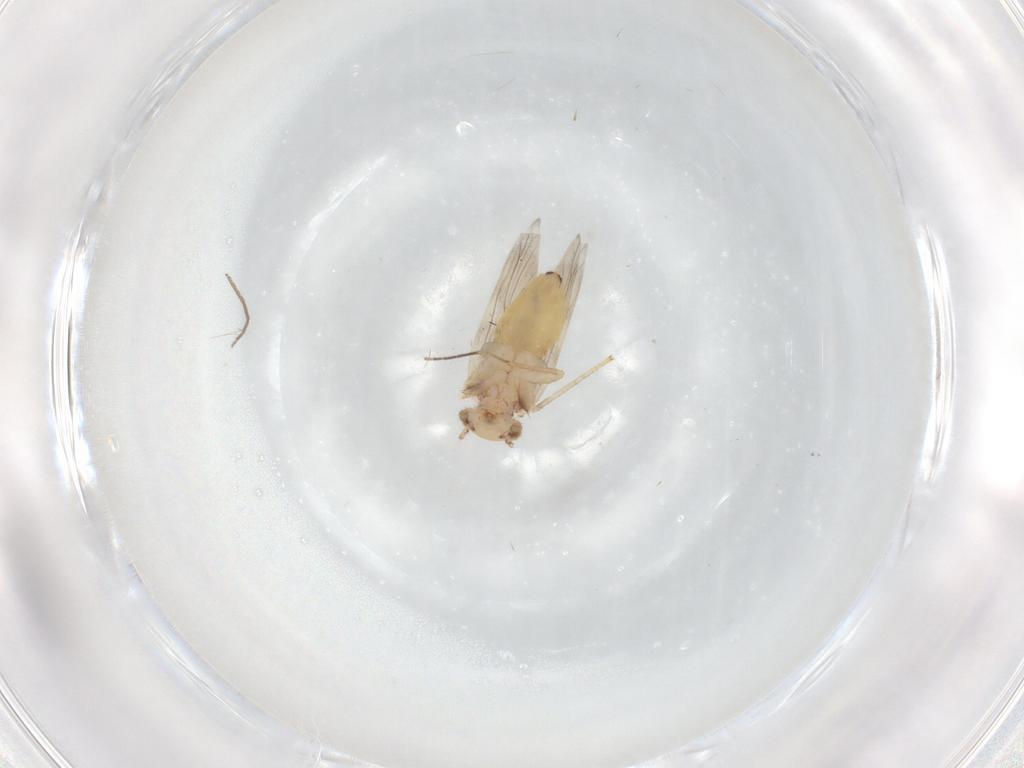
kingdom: Animalia
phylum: Arthropoda
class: Insecta
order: Psocodea
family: Lepidopsocidae
